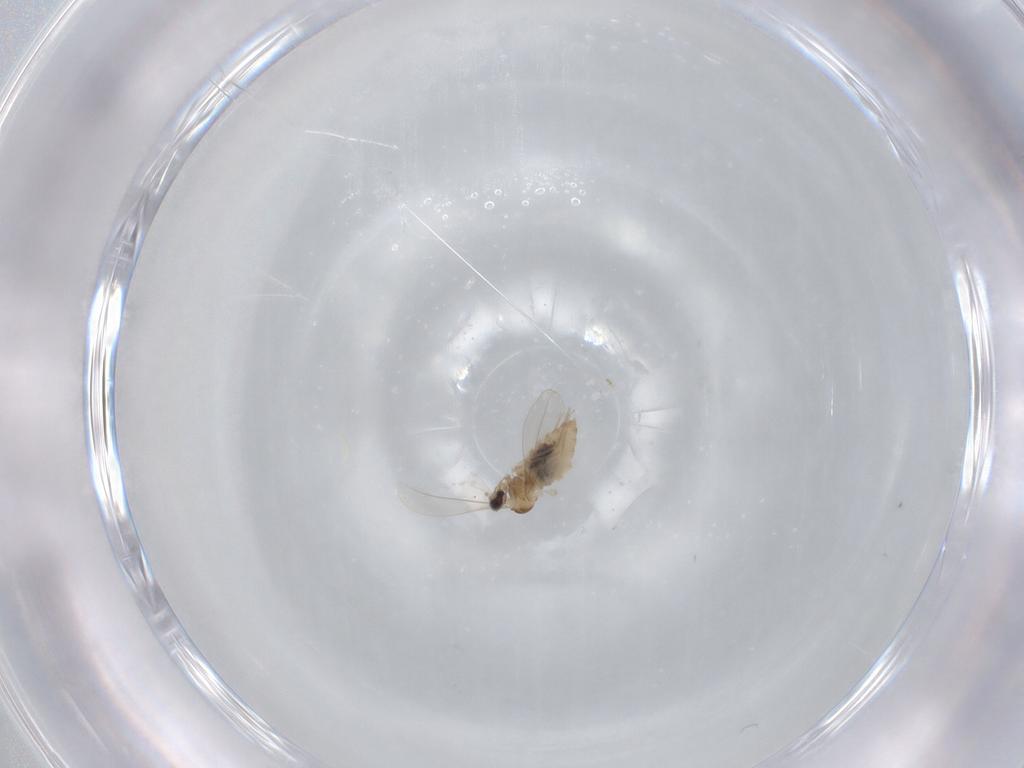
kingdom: Animalia
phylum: Arthropoda
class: Insecta
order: Diptera
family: Cecidomyiidae
